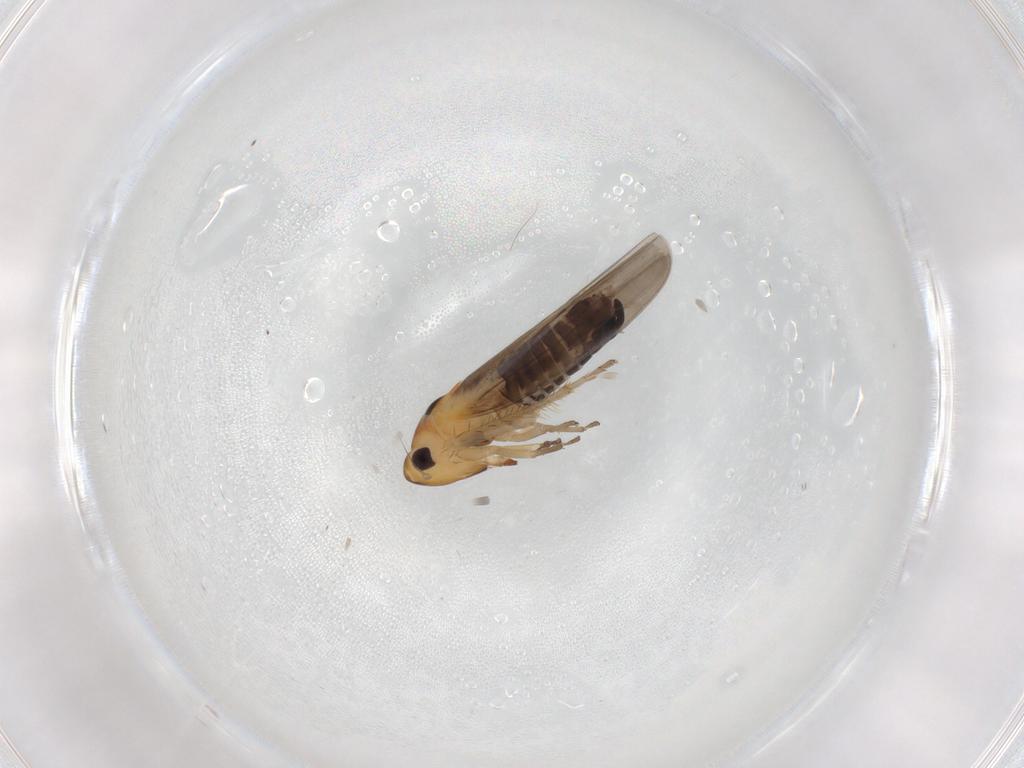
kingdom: Animalia
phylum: Arthropoda
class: Insecta
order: Hemiptera
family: Cicadellidae
